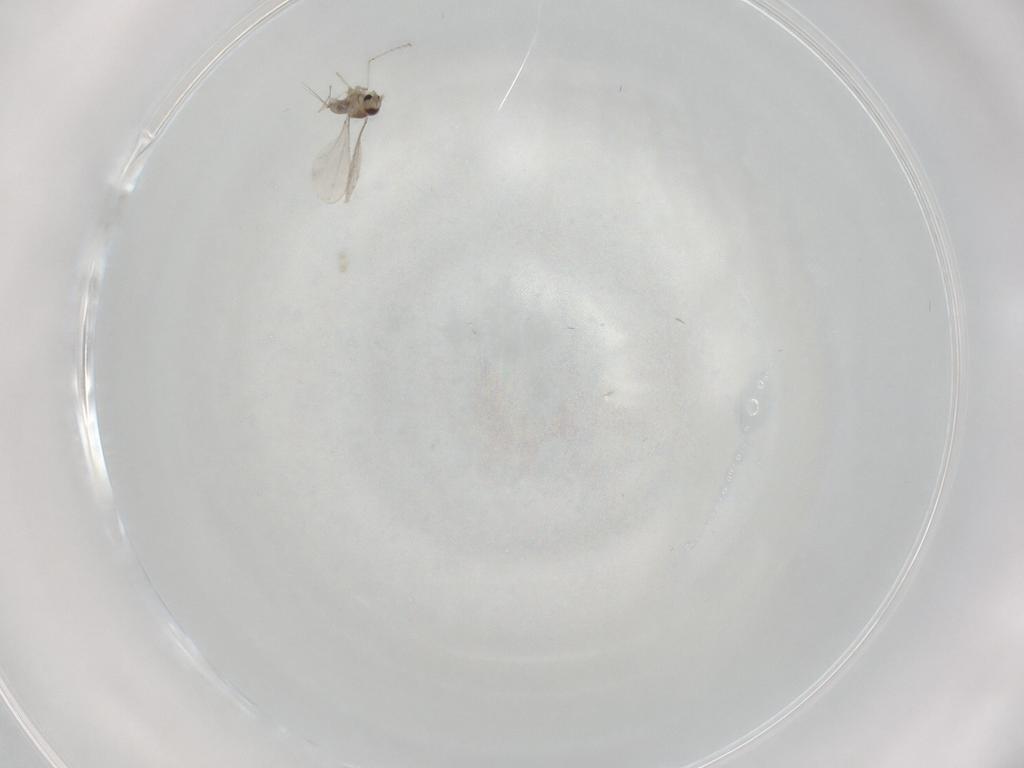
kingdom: Animalia
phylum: Arthropoda
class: Insecta
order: Diptera
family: Cecidomyiidae
